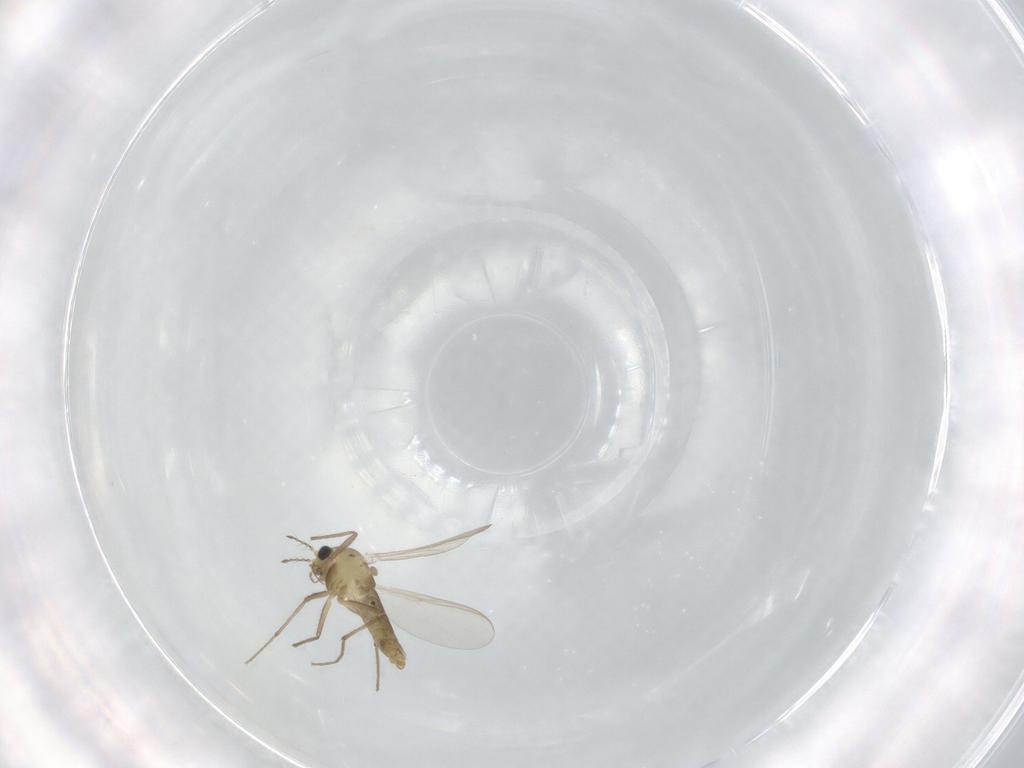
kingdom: Animalia
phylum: Arthropoda
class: Insecta
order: Diptera
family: Chironomidae
